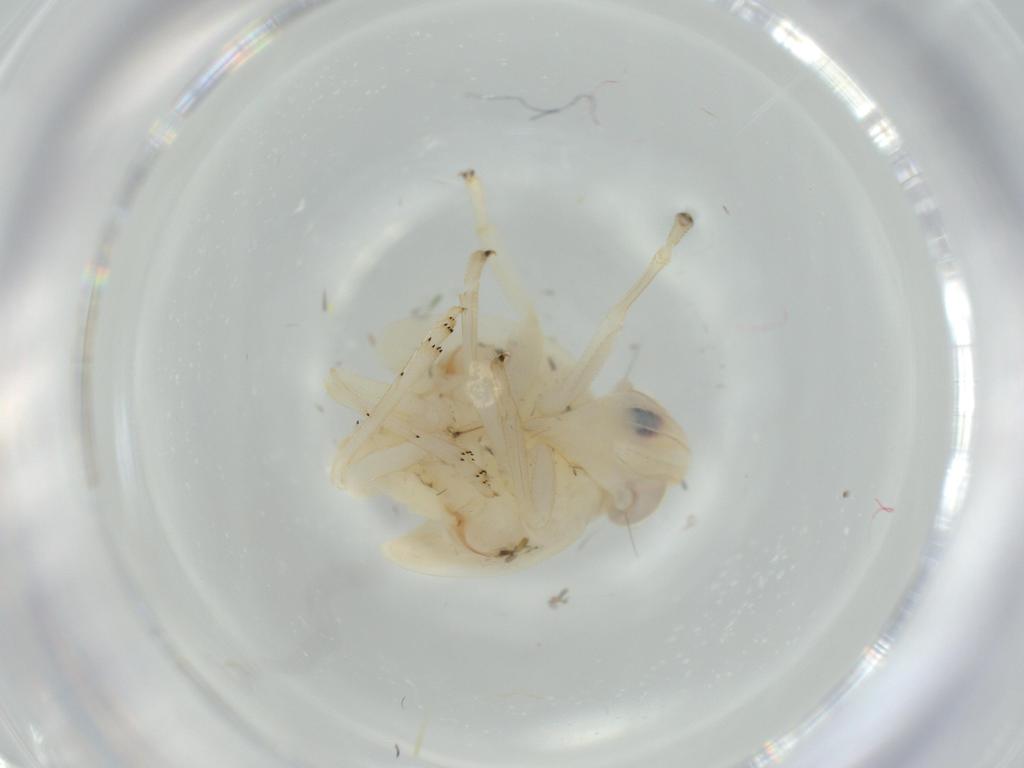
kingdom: Animalia
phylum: Arthropoda
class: Insecta
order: Hemiptera
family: Nogodinidae
